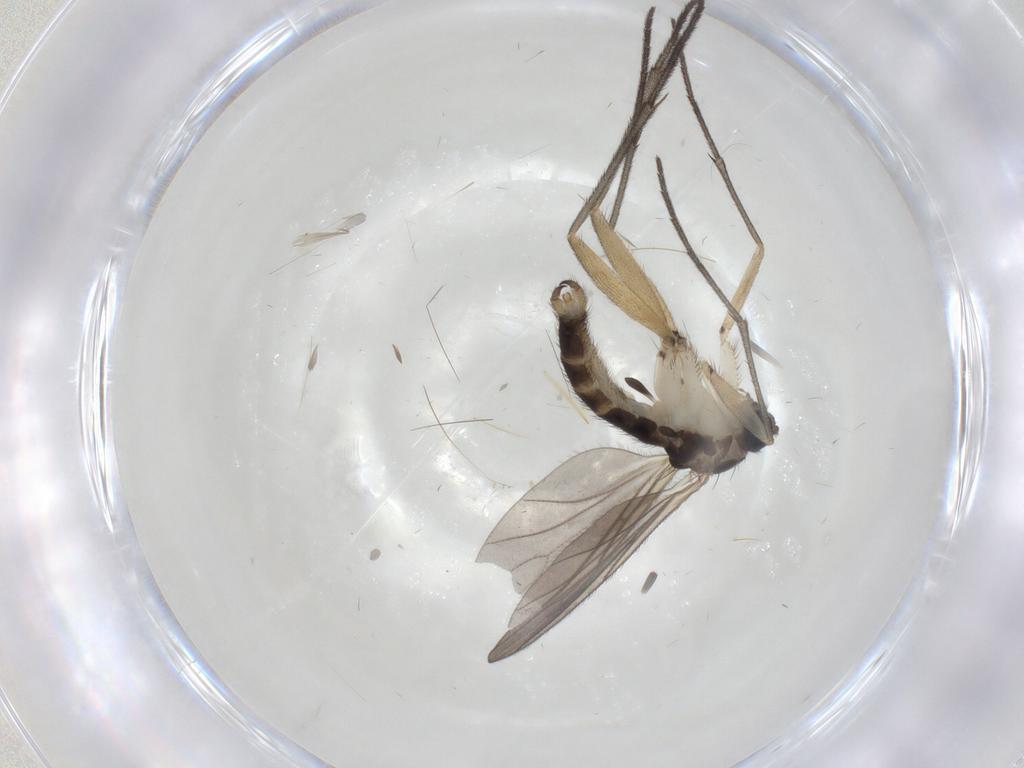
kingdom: Animalia
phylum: Arthropoda
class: Insecta
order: Diptera
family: Sciaridae
